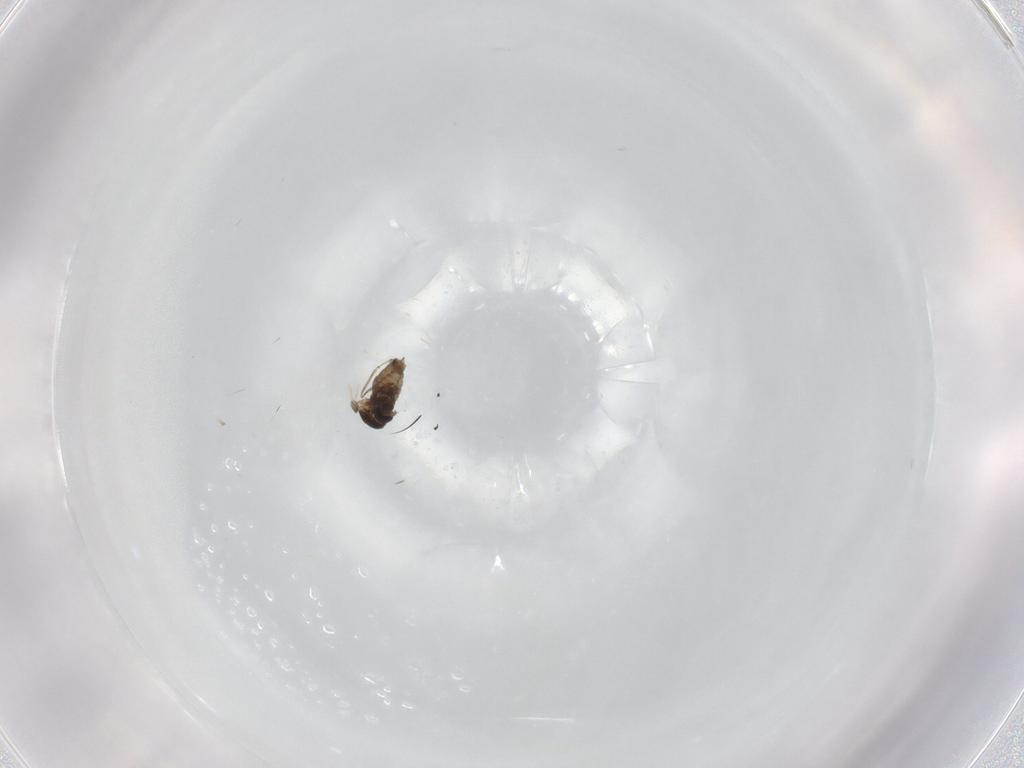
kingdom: Animalia
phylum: Arthropoda
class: Insecta
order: Diptera
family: Cecidomyiidae
